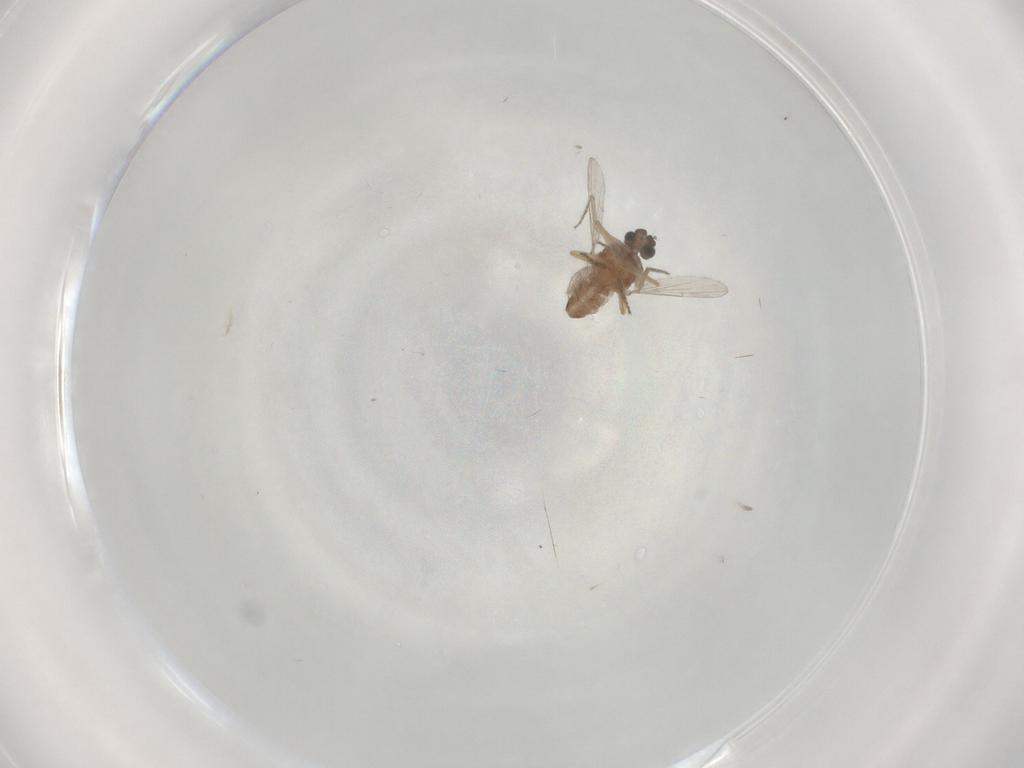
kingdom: Animalia
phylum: Arthropoda
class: Insecta
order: Diptera
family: Ceratopogonidae
